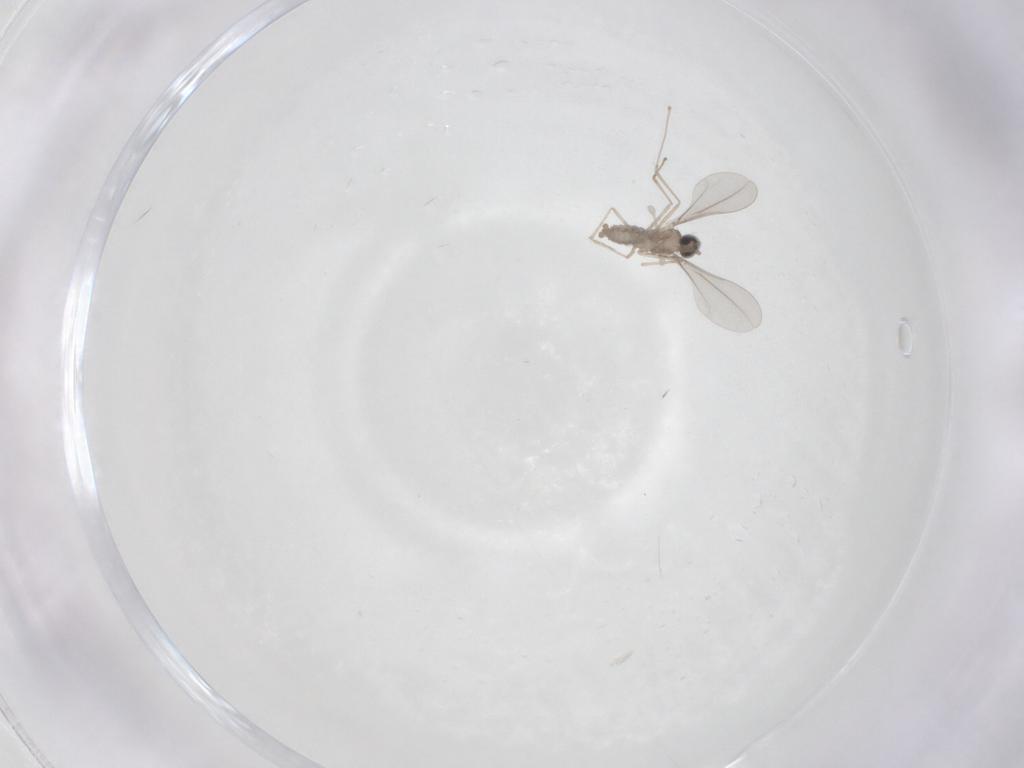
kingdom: Animalia
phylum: Arthropoda
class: Insecta
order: Diptera
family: Cecidomyiidae
